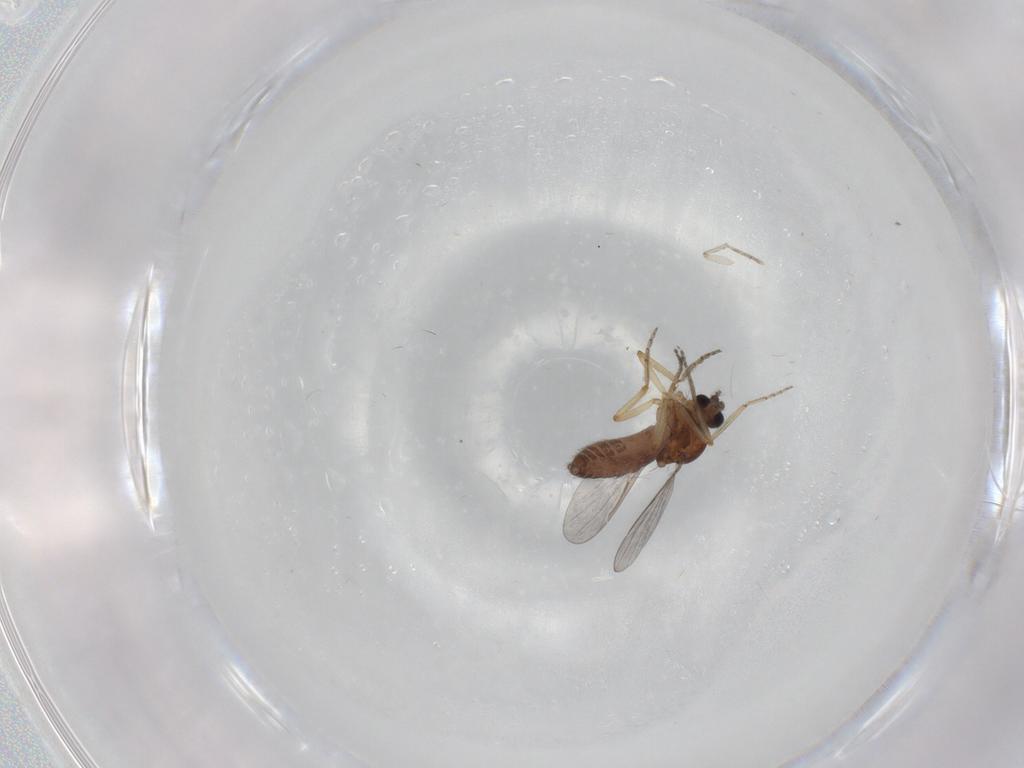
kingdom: Animalia
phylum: Arthropoda
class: Insecta
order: Diptera
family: Ceratopogonidae
